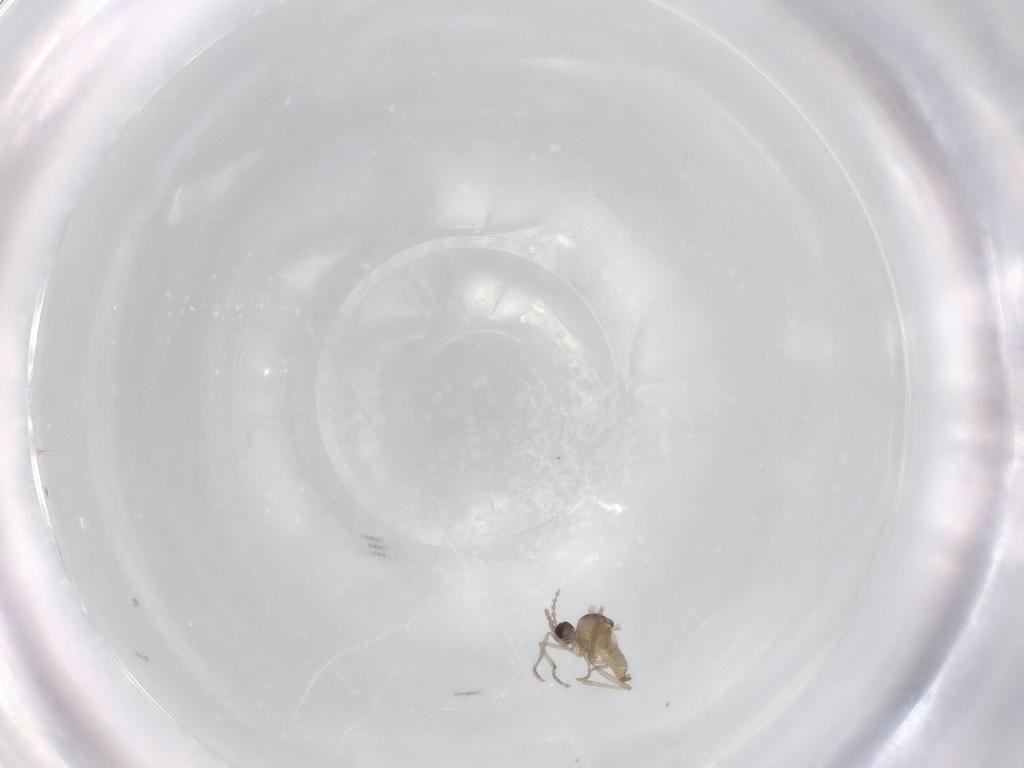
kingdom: Animalia
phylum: Arthropoda
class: Insecta
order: Diptera
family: Cecidomyiidae
